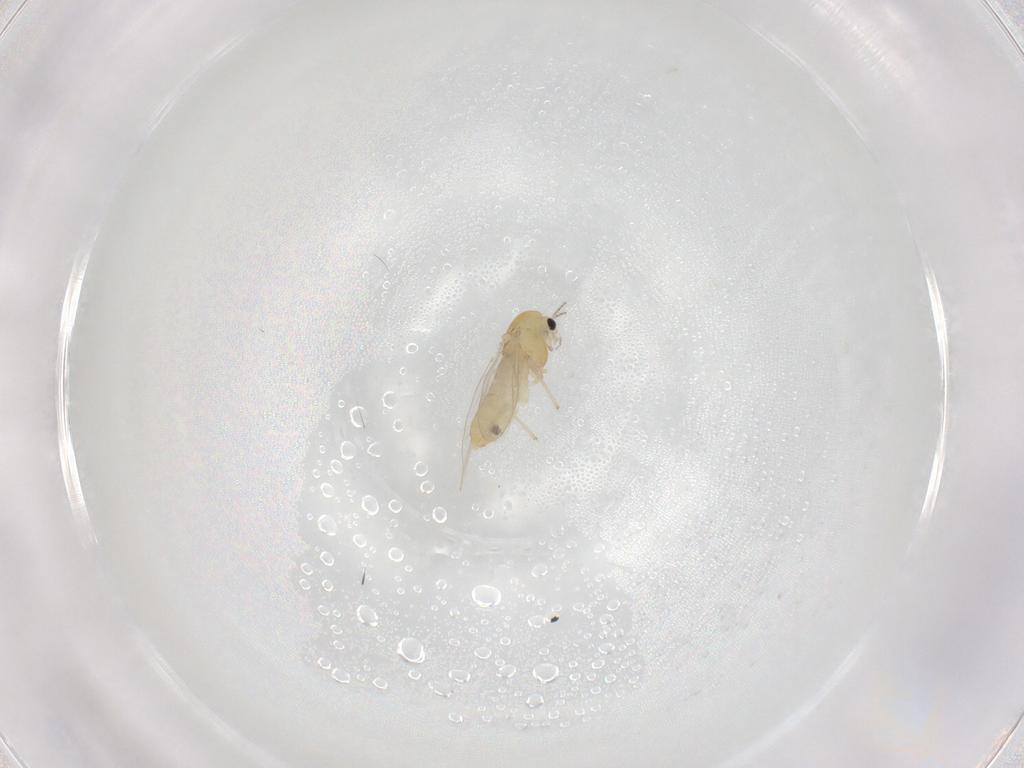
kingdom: Animalia
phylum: Arthropoda
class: Insecta
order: Diptera
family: Chironomidae
